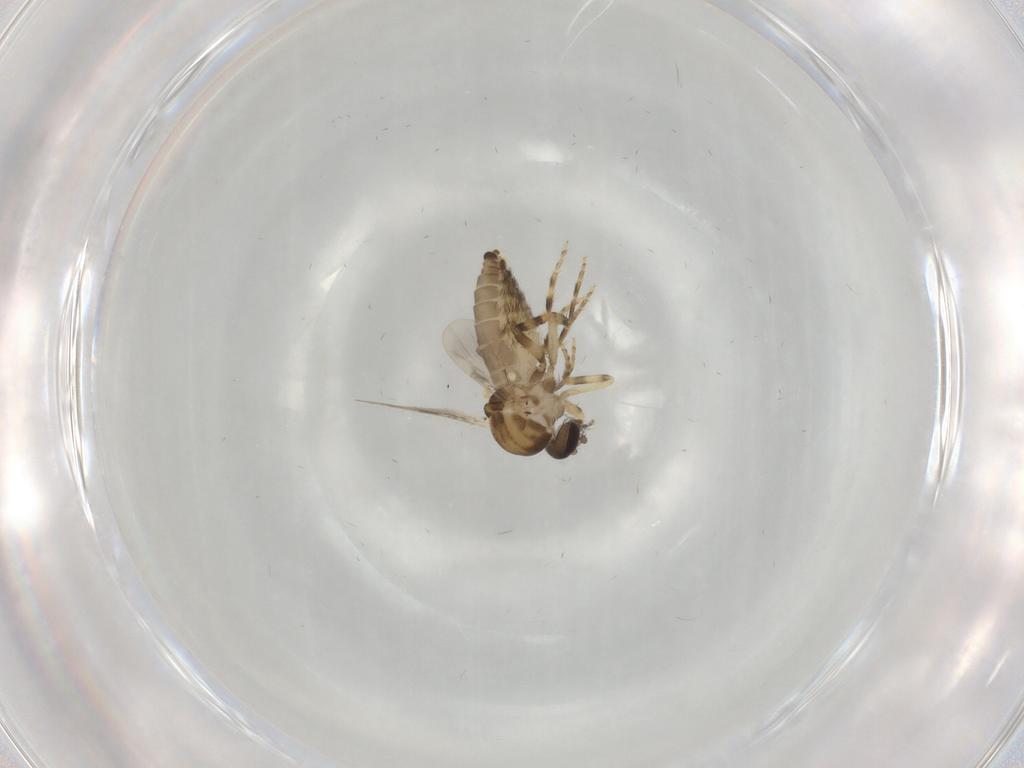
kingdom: Animalia
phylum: Arthropoda
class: Insecta
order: Diptera
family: Ceratopogonidae
